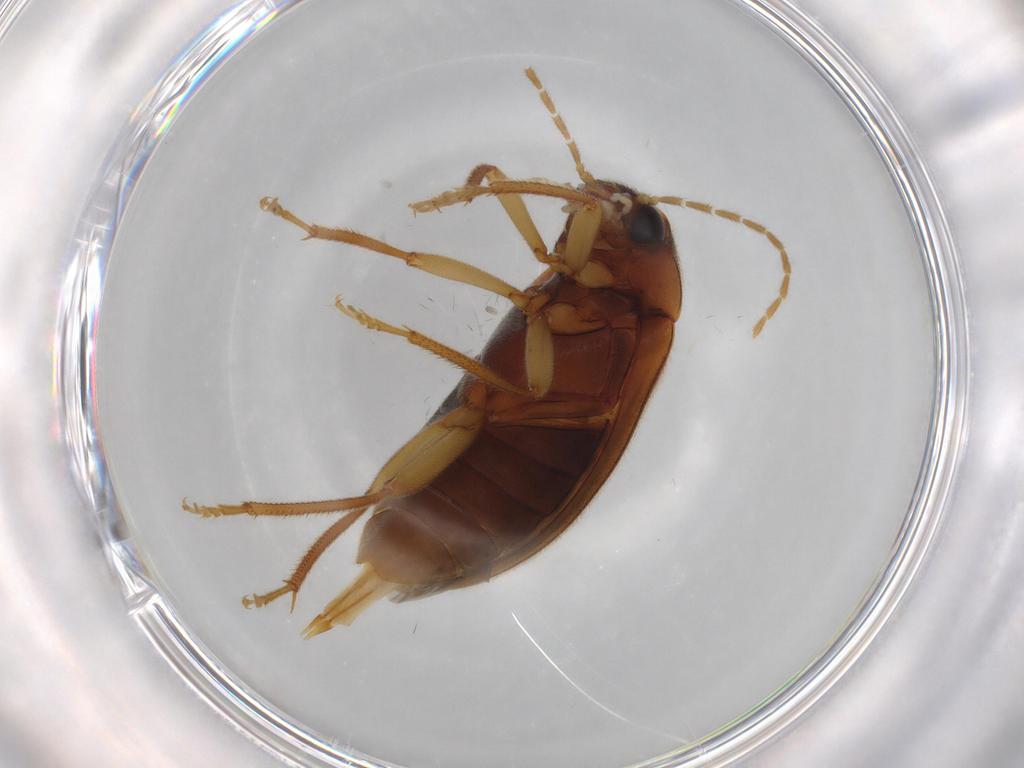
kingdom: Animalia
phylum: Arthropoda
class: Insecta
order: Coleoptera
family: Ptilodactylidae
